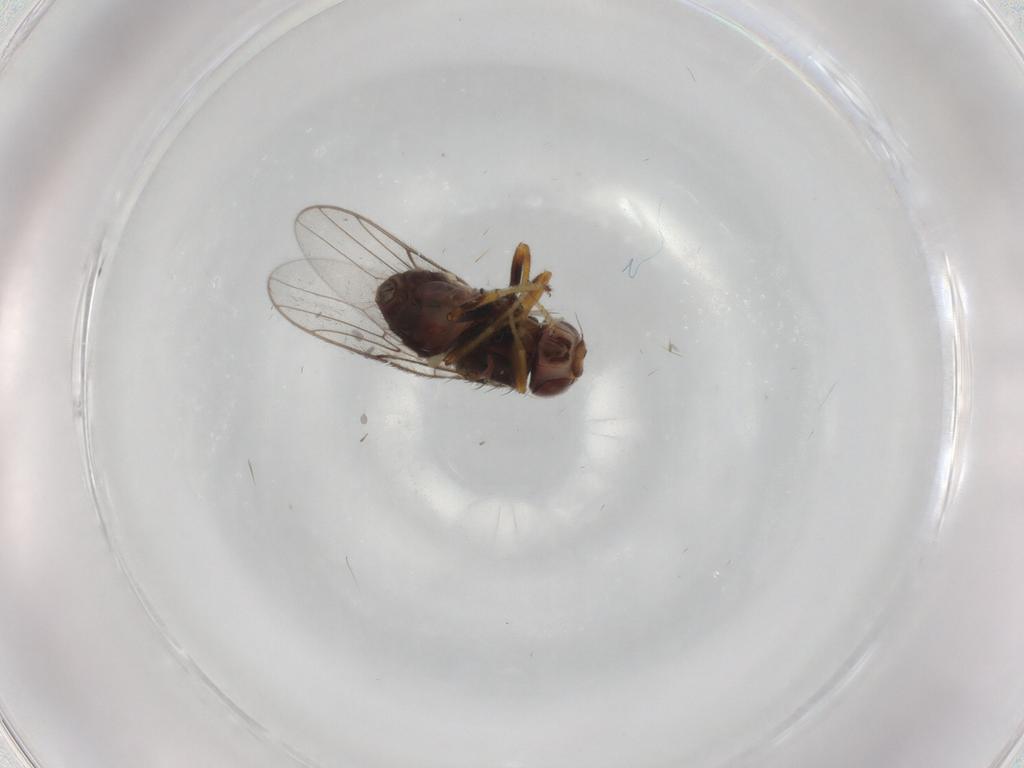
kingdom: Animalia
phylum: Arthropoda
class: Insecta
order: Diptera
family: Chloropidae
